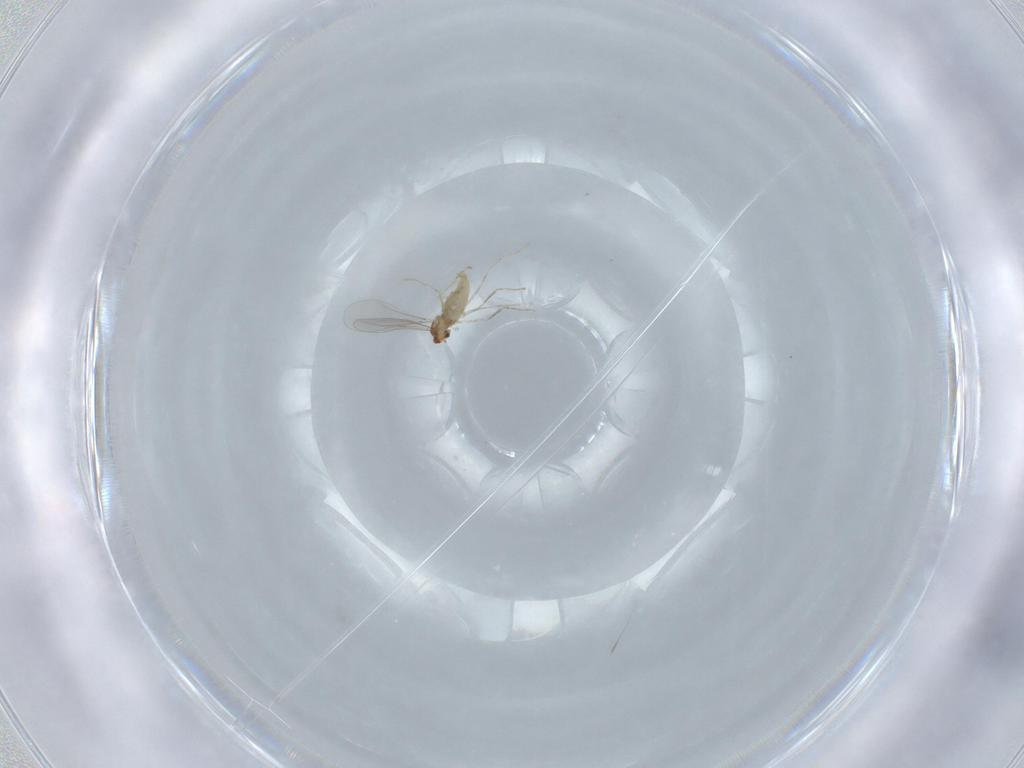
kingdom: Animalia
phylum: Arthropoda
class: Insecta
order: Diptera
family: Cecidomyiidae
